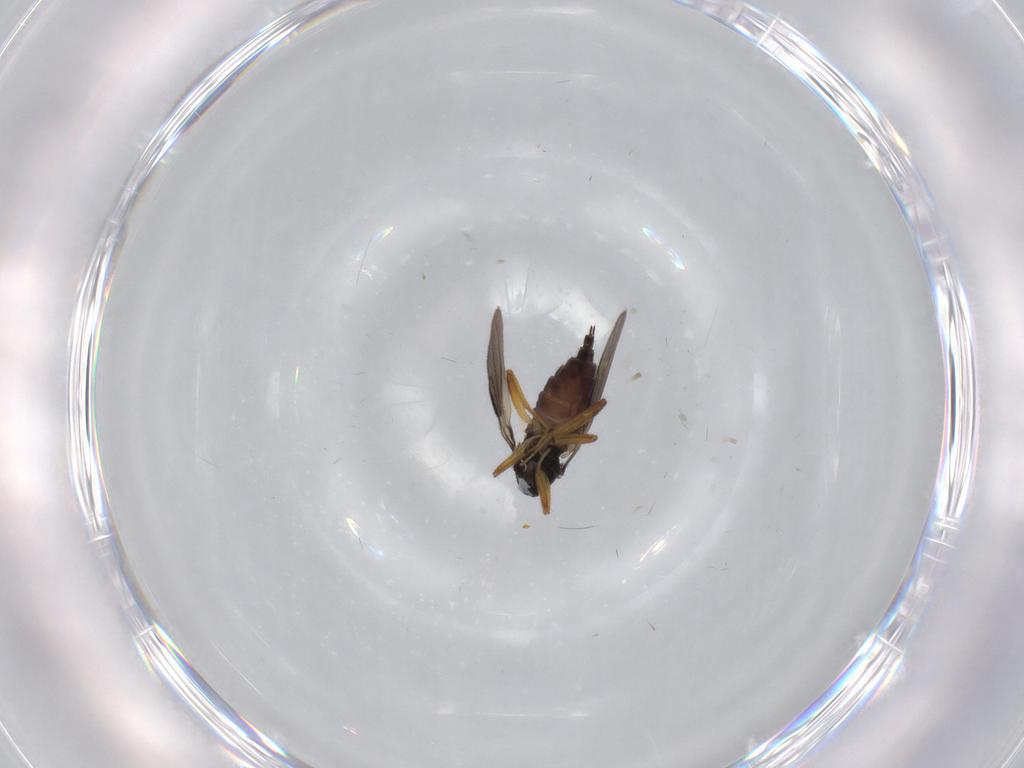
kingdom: Animalia
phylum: Arthropoda
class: Insecta
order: Diptera
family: Hybotidae
